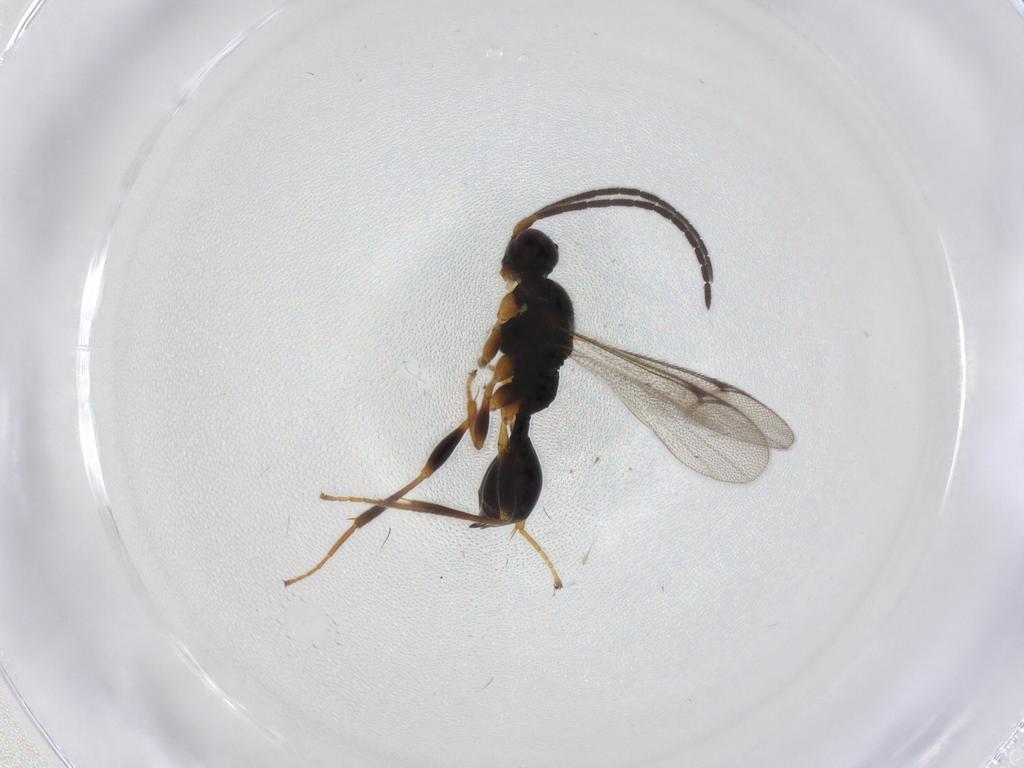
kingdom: Animalia
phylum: Arthropoda
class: Insecta
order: Hymenoptera
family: Proctotrupidae
